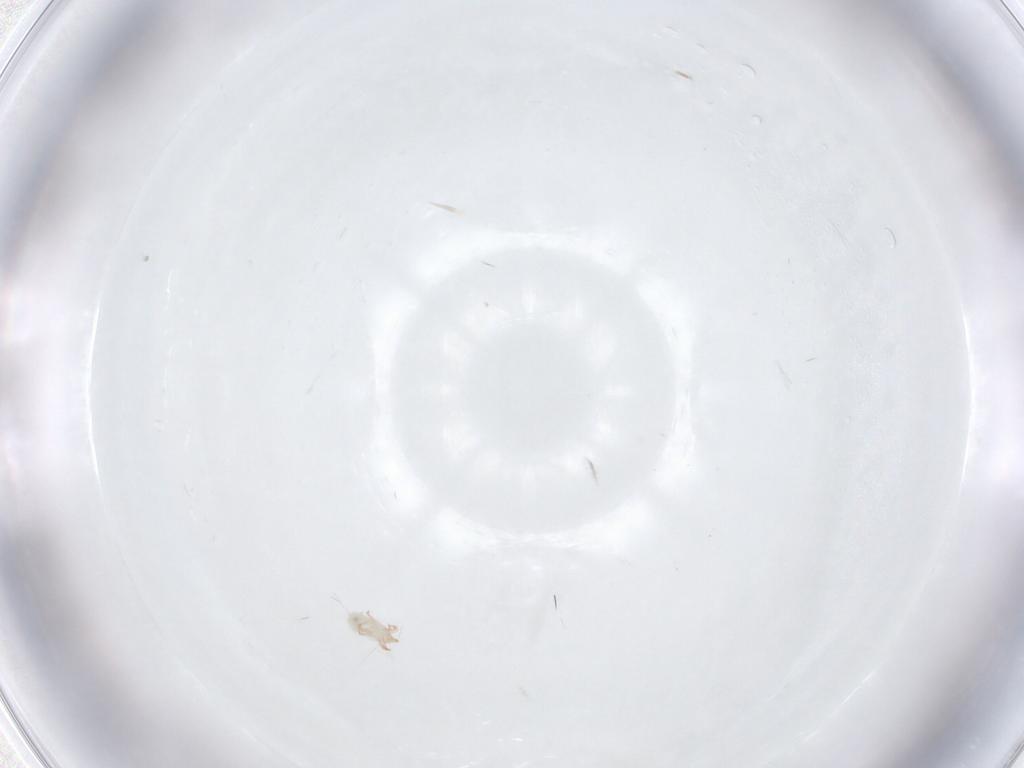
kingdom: Animalia
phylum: Arthropoda
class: Arachnida
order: Sarcoptiformes
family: Acaridae
